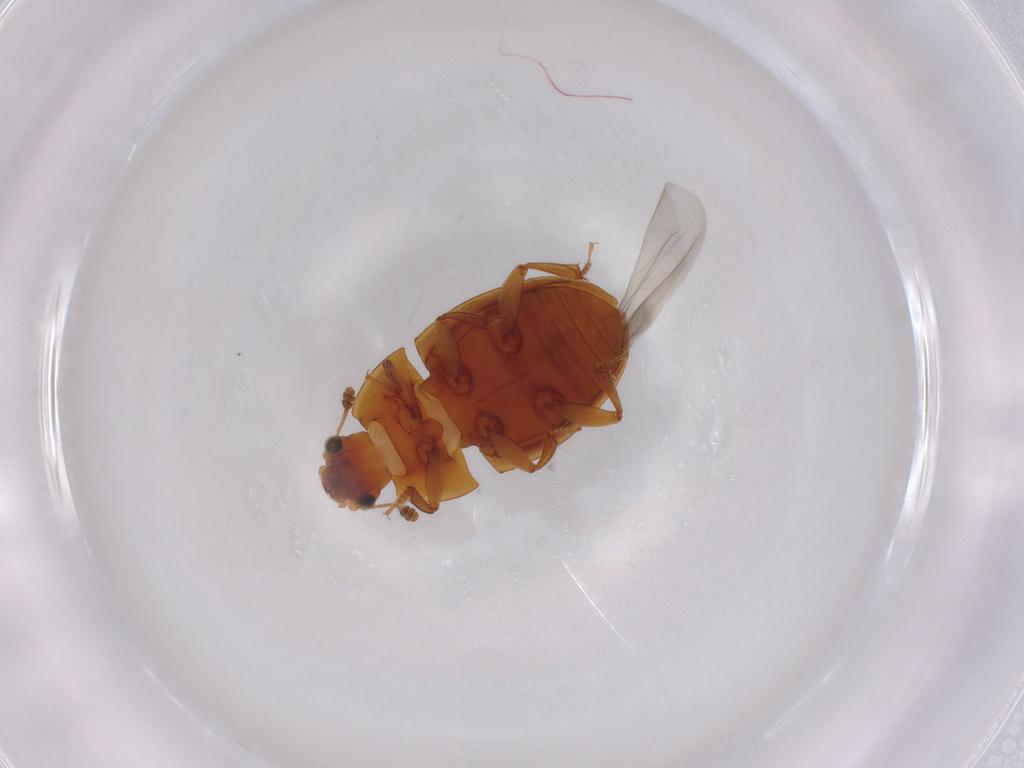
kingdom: Animalia
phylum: Arthropoda
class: Insecta
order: Coleoptera
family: Nitidulidae
